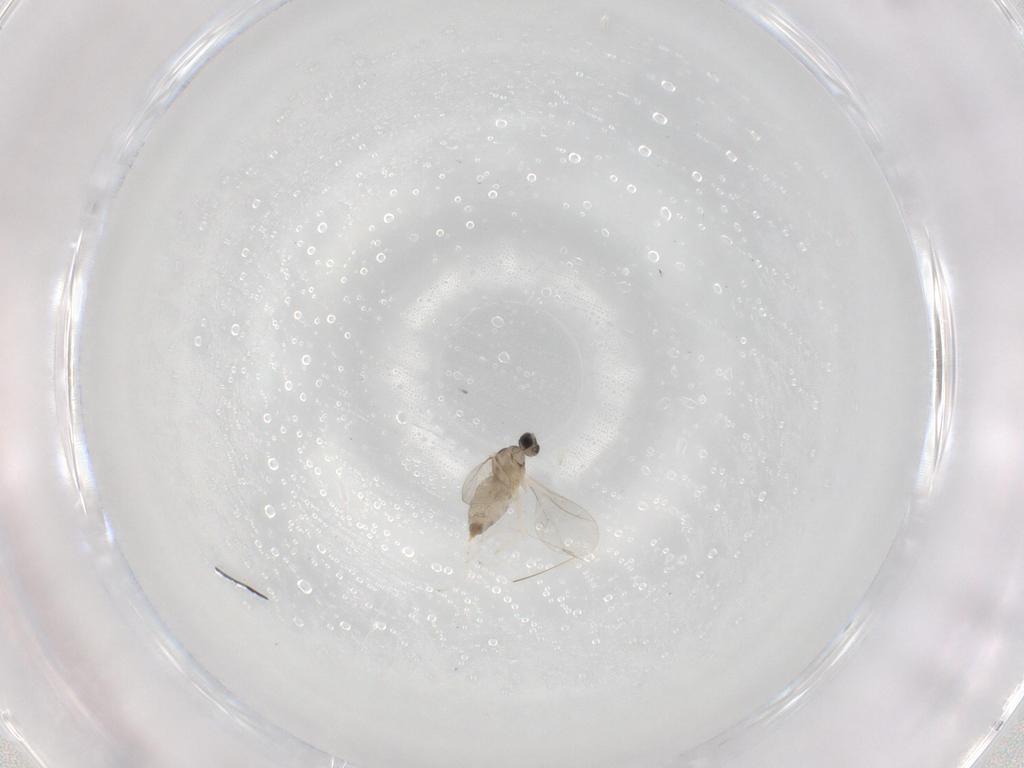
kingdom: Animalia
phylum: Arthropoda
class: Insecta
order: Diptera
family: Cecidomyiidae
